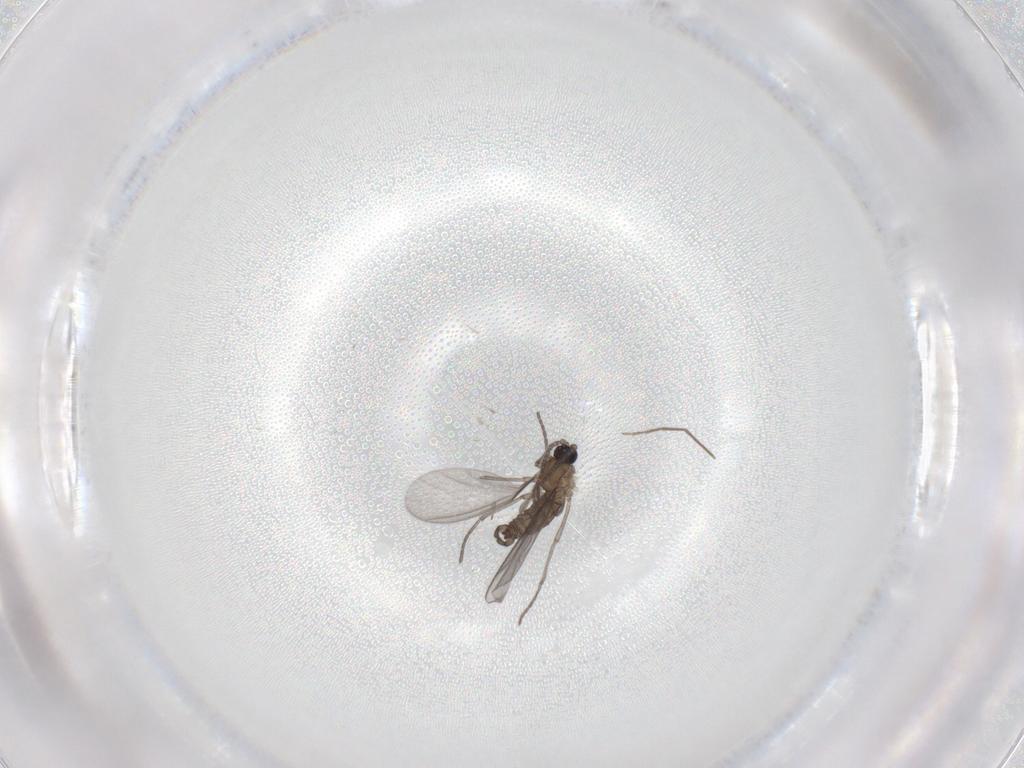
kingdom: Animalia
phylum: Arthropoda
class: Insecta
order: Diptera
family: Sciaridae
